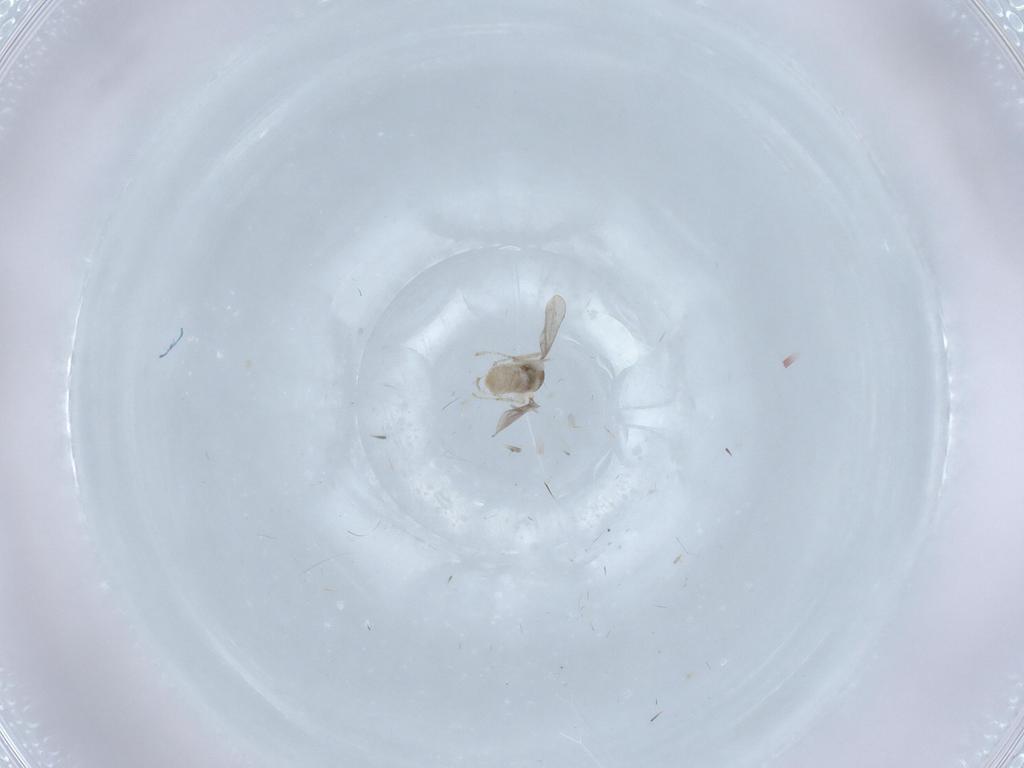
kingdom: Animalia
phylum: Arthropoda
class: Insecta
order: Diptera
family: Cecidomyiidae
